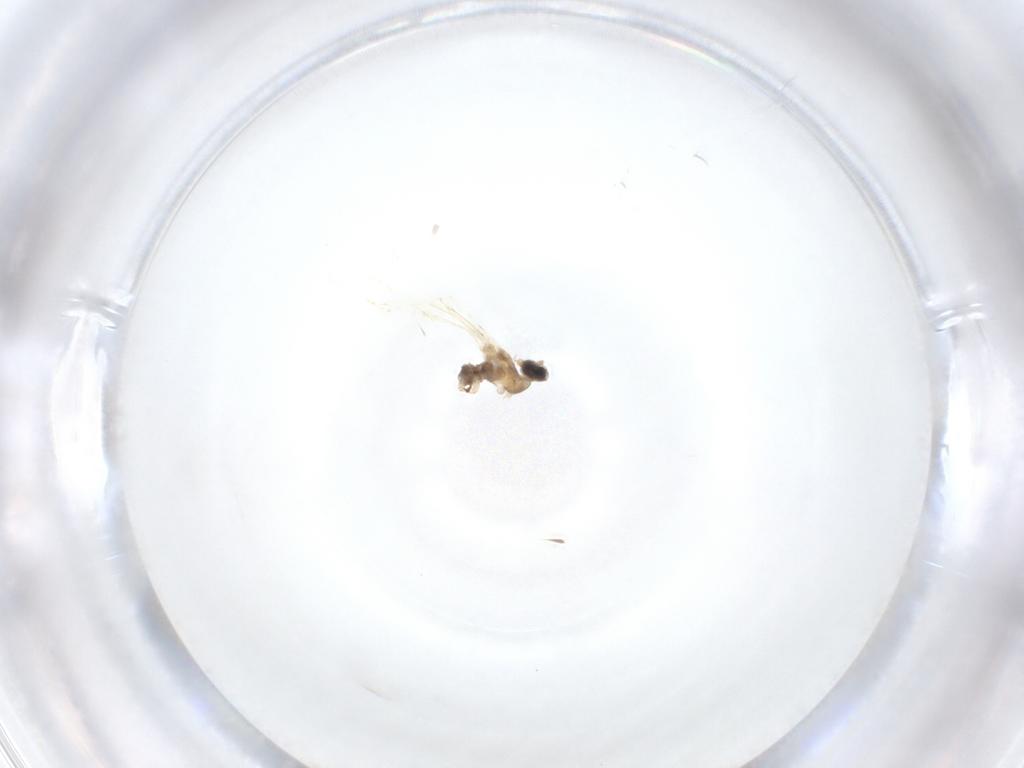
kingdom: Animalia
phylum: Arthropoda
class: Insecta
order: Diptera
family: Cecidomyiidae
